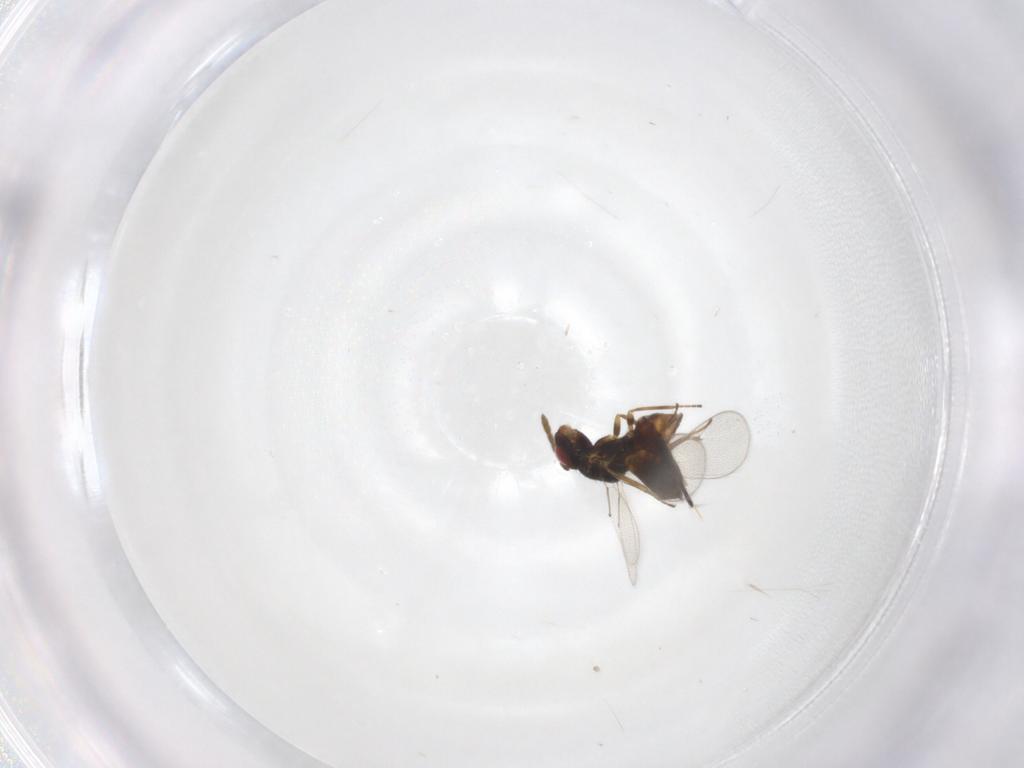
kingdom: Animalia
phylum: Arthropoda
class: Insecta
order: Hymenoptera
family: Eulophidae
